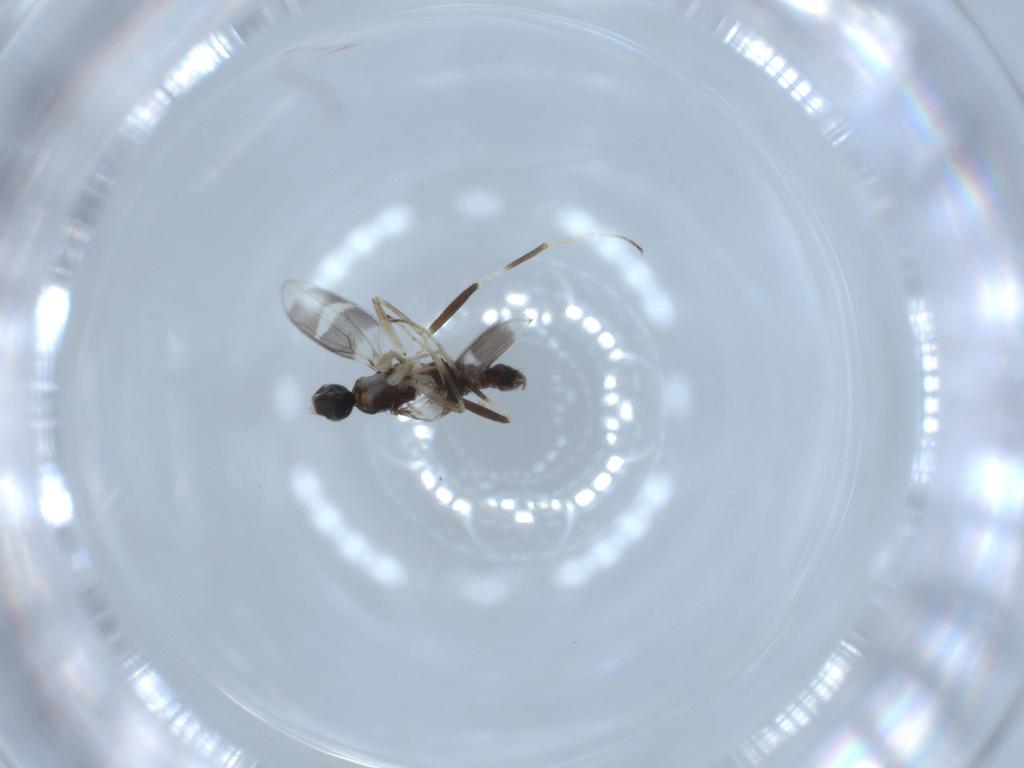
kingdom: Animalia
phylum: Arthropoda
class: Insecta
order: Diptera
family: Hybotidae
